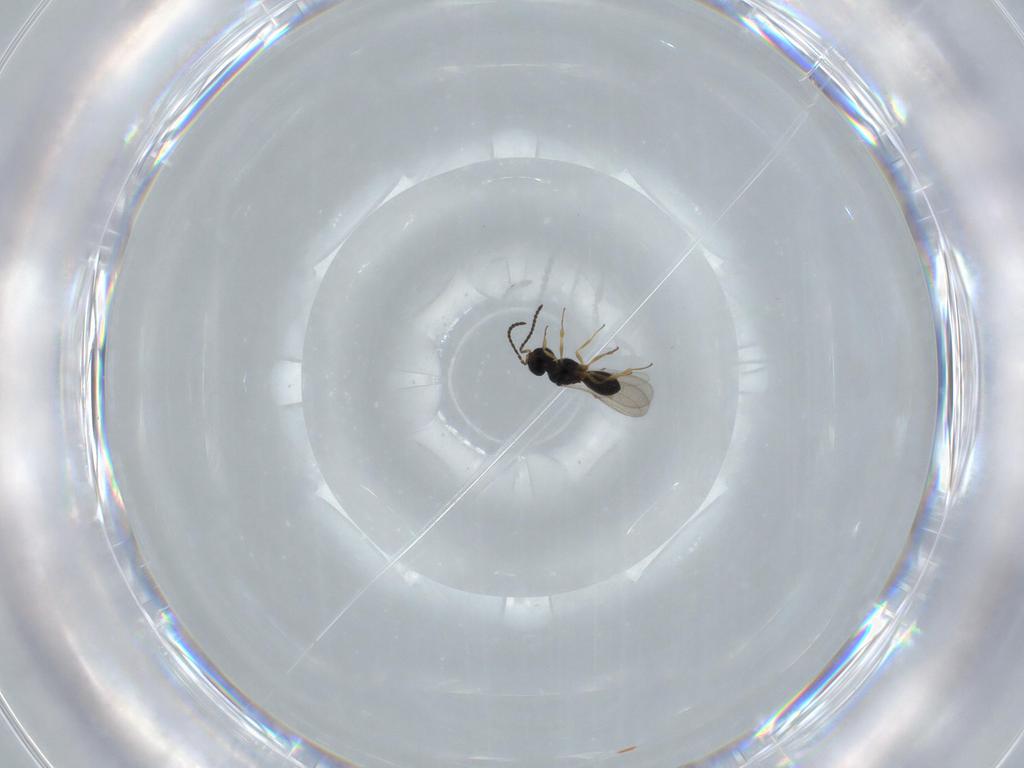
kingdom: Animalia
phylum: Arthropoda
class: Insecta
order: Hymenoptera
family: Scelionidae
